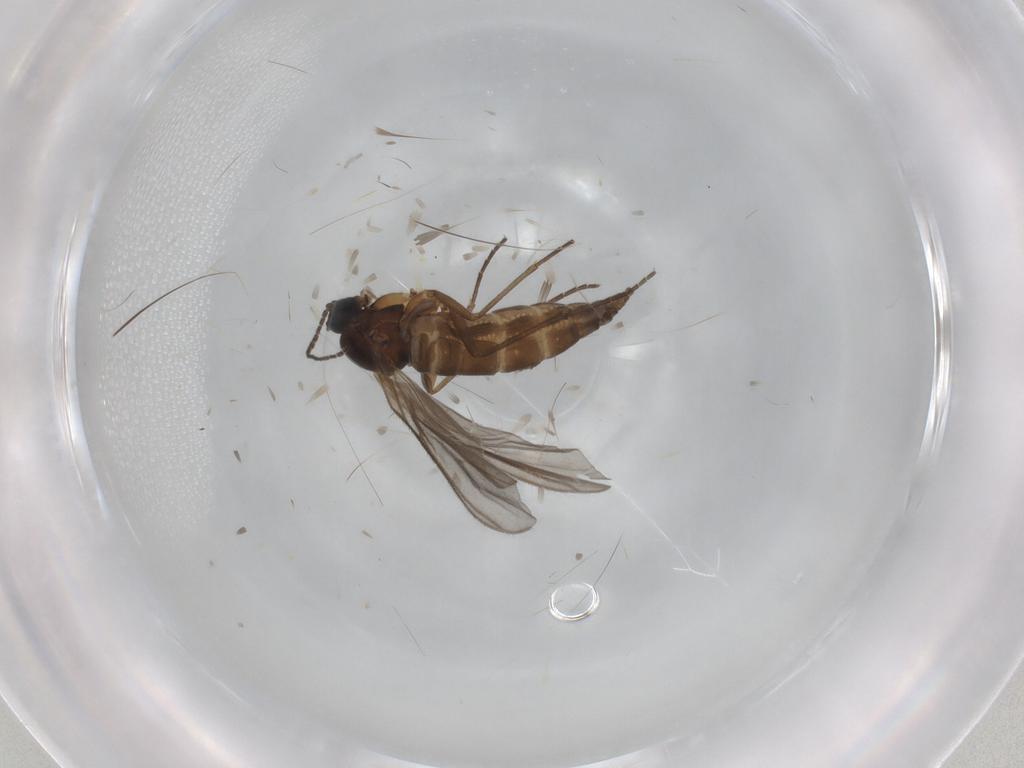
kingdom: Animalia
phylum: Arthropoda
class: Insecta
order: Diptera
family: Sciaridae
